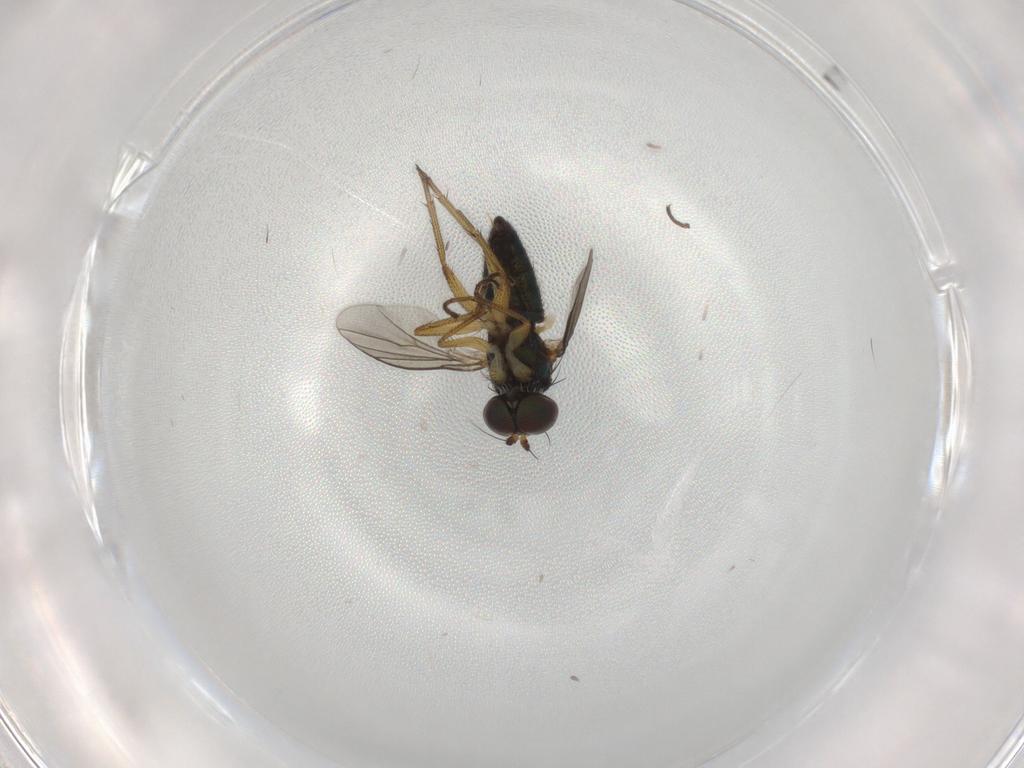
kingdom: Animalia
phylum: Arthropoda
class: Insecta
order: Diptera
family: Dolichopodidae
